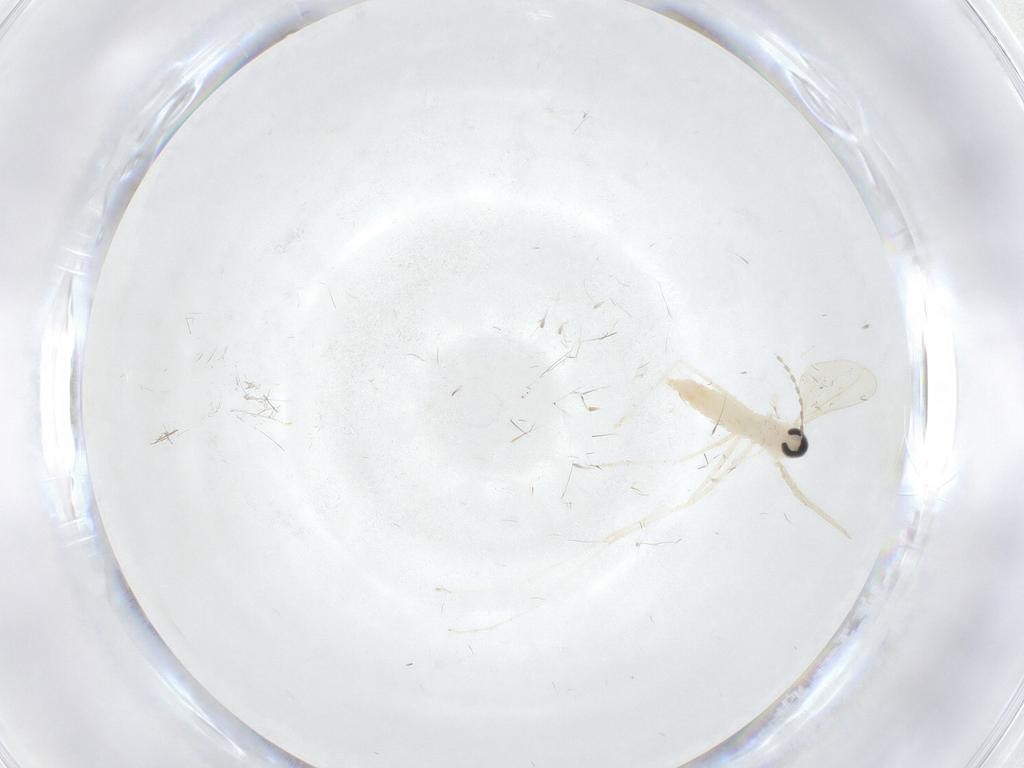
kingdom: Animalia
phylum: Arthropoda
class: Insecta
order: Diptera
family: Cecidomyiidae
